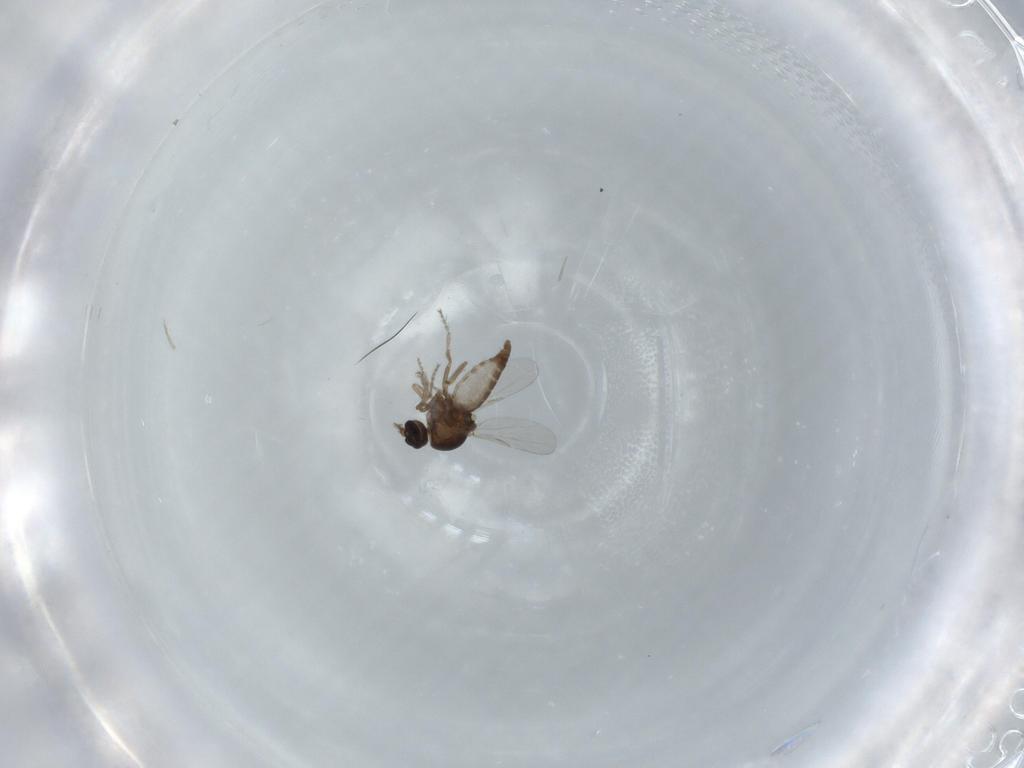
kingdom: Animalia
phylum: Arthropoda
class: Insecta
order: Diptera
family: Ceratopogonidae
